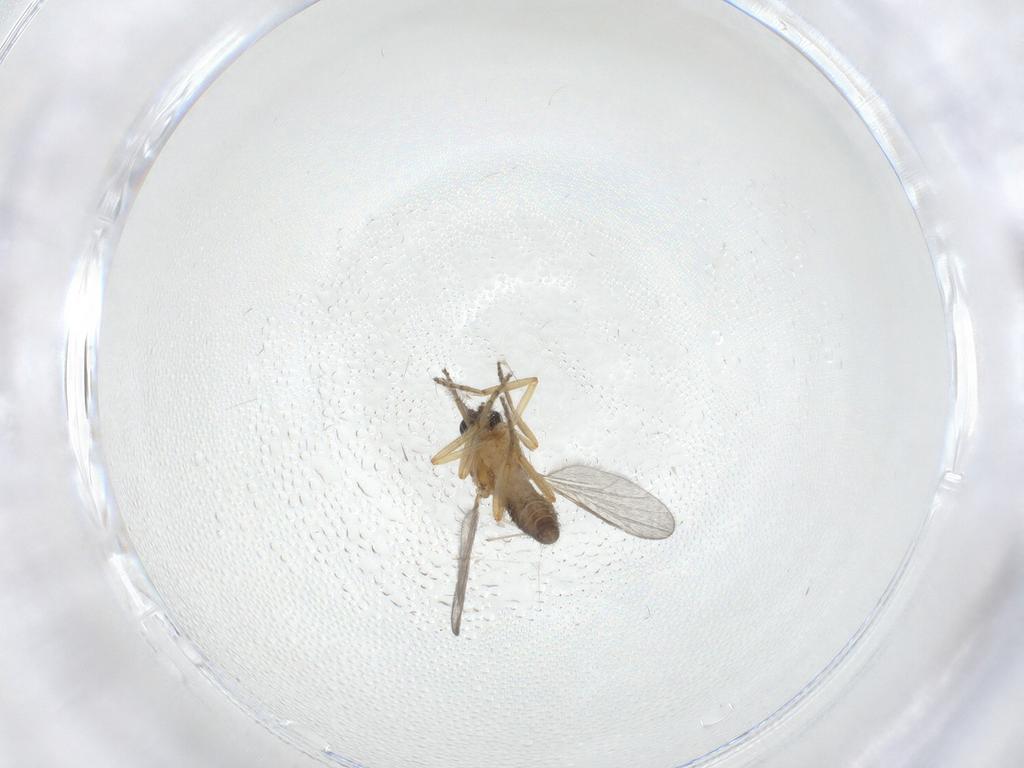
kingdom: Animalia
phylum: Arthropoda
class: Insecta
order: Diptera
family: Ceratopogonidae
